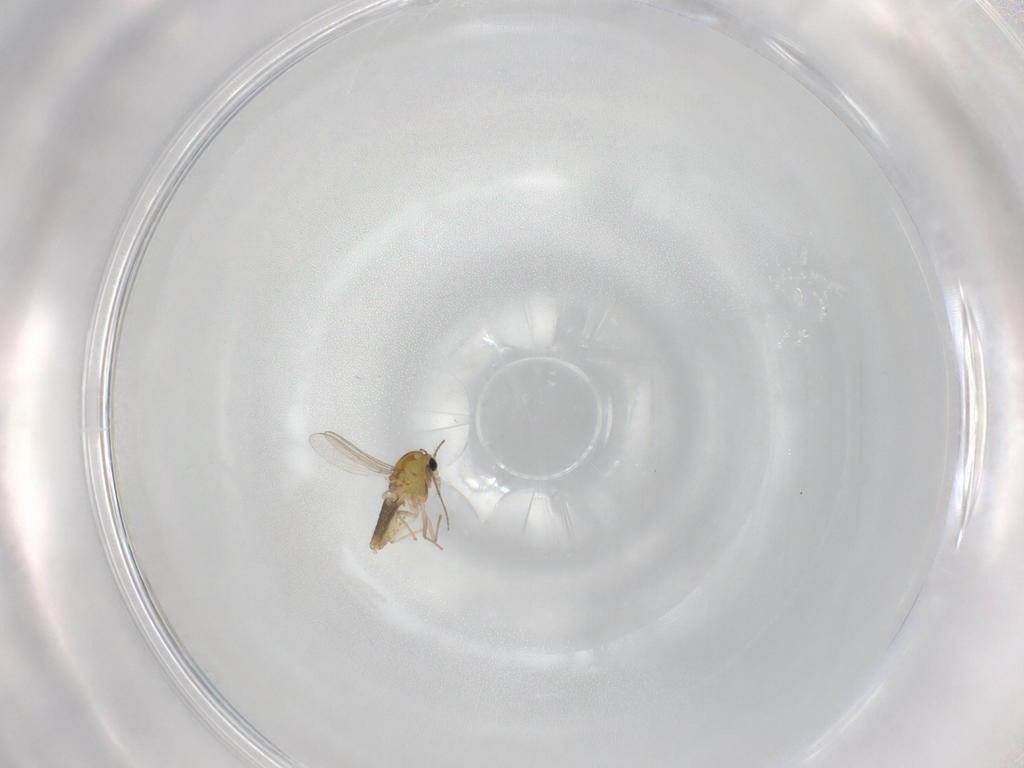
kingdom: Animalia
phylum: Arthropoda
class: Insecta
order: Diptera
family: Chironomidae
